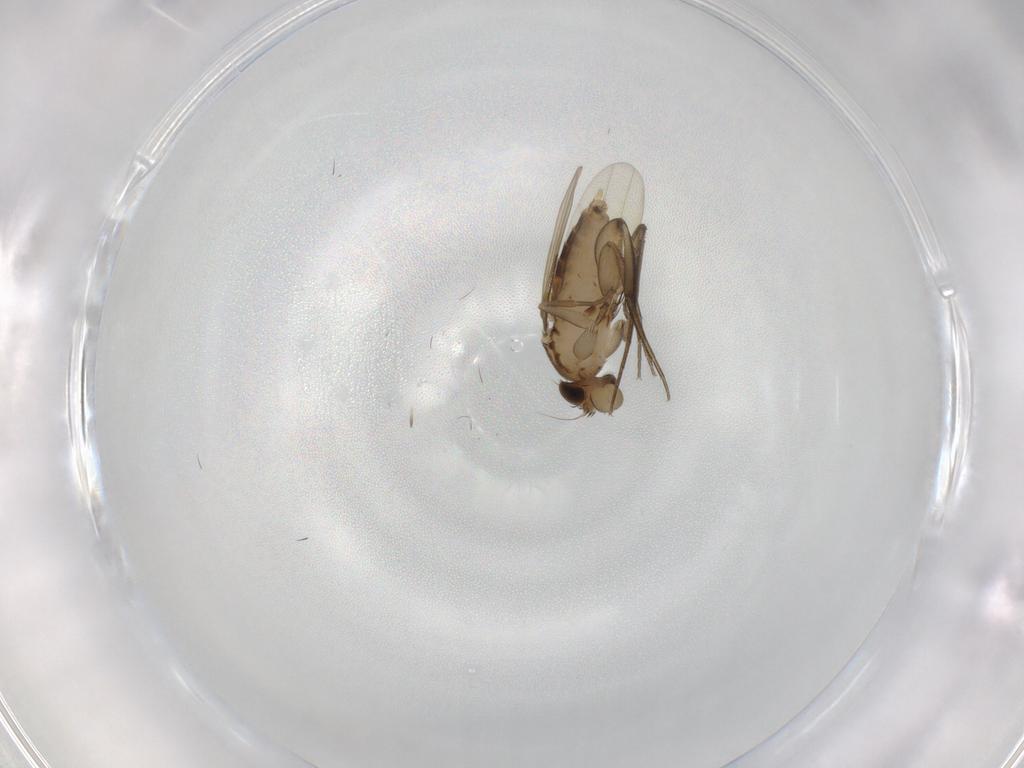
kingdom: Animalia
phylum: Arthropoda
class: Insecta
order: Diptera
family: Phoridae
